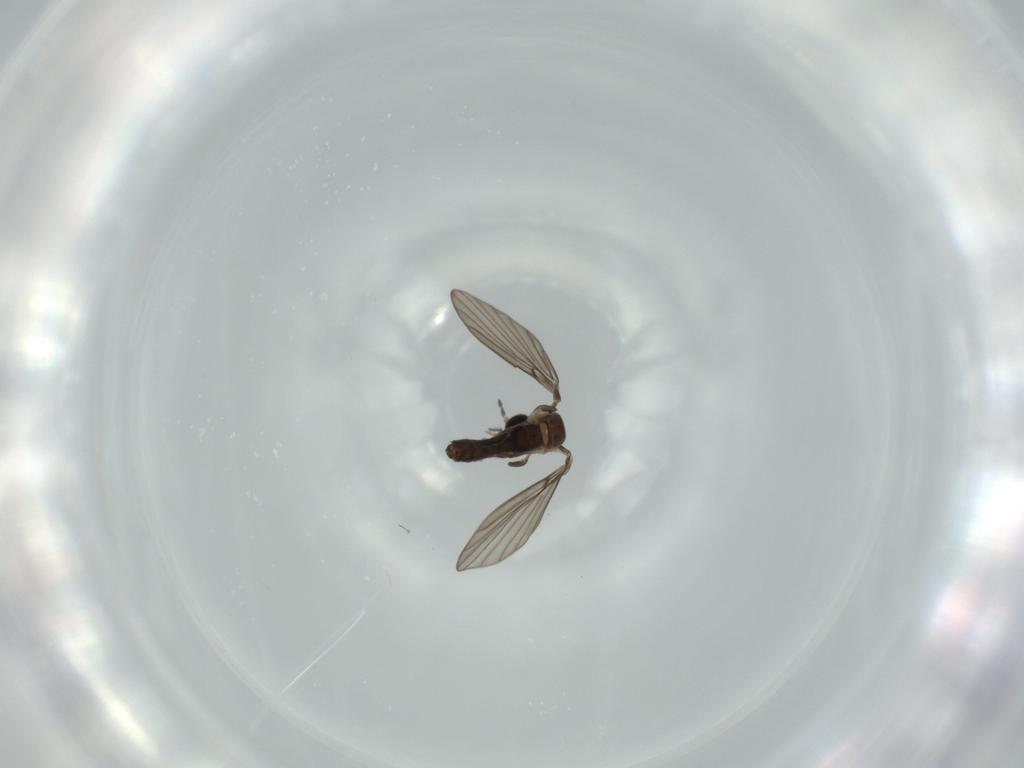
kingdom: Animalia
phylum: Arthropoda
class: Insecta
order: Diptera
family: Psychodidae
